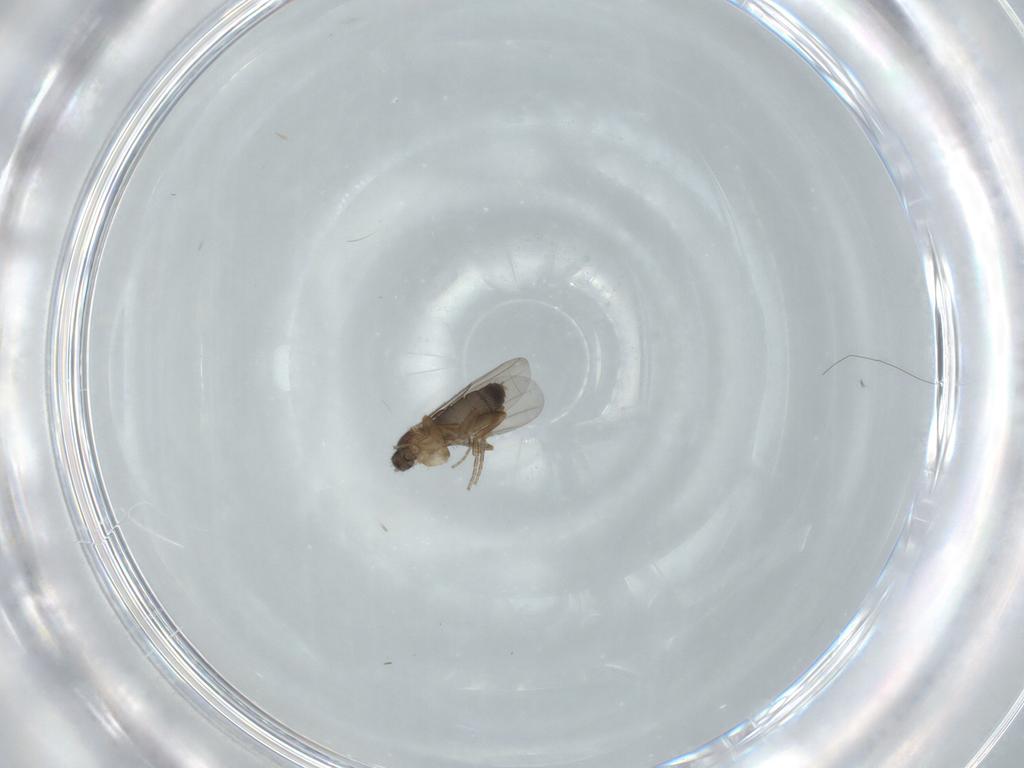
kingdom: Animalia
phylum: Arthropoda
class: Insecta
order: Diptera
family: Phoridae
